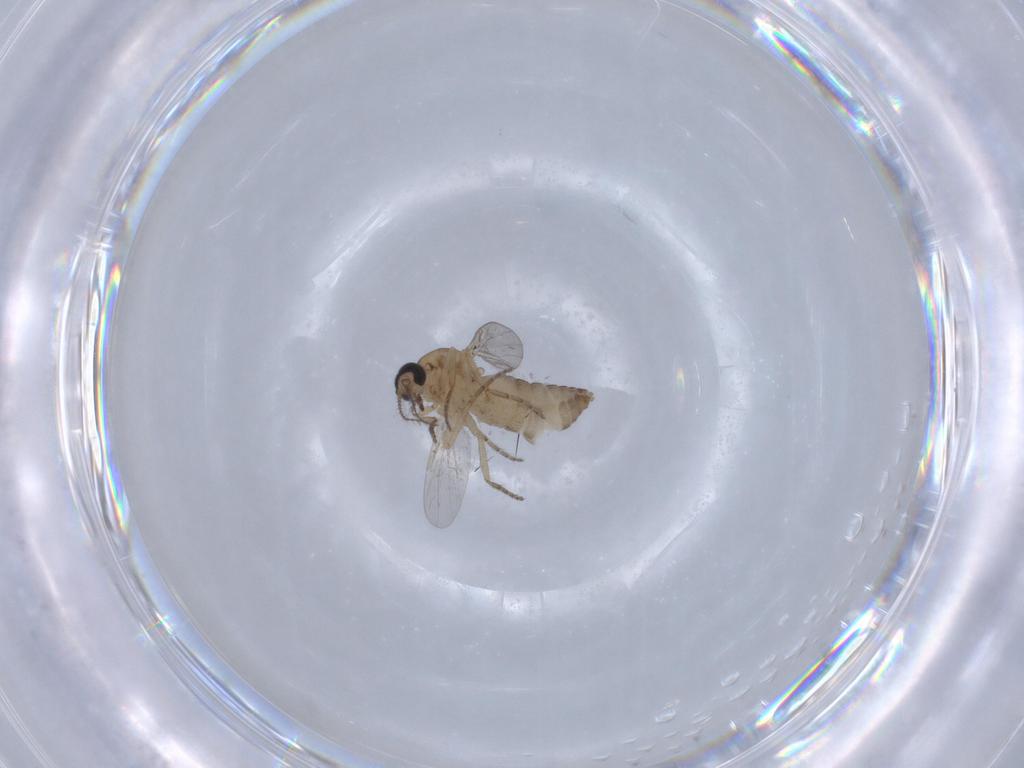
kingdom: Animalia
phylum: Arthropoda
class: Insecta
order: Diptera
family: Ceratopogonidae
